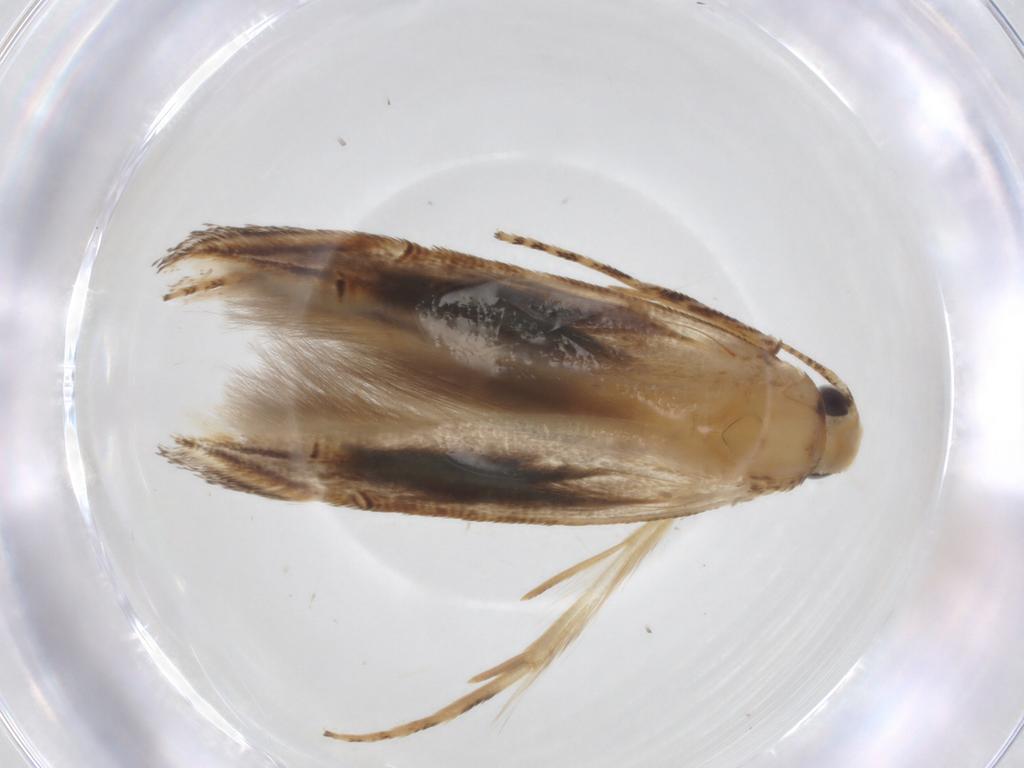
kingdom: Animalia
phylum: Arthropoda
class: Insecta
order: Lepidoptera
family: Momphidae
